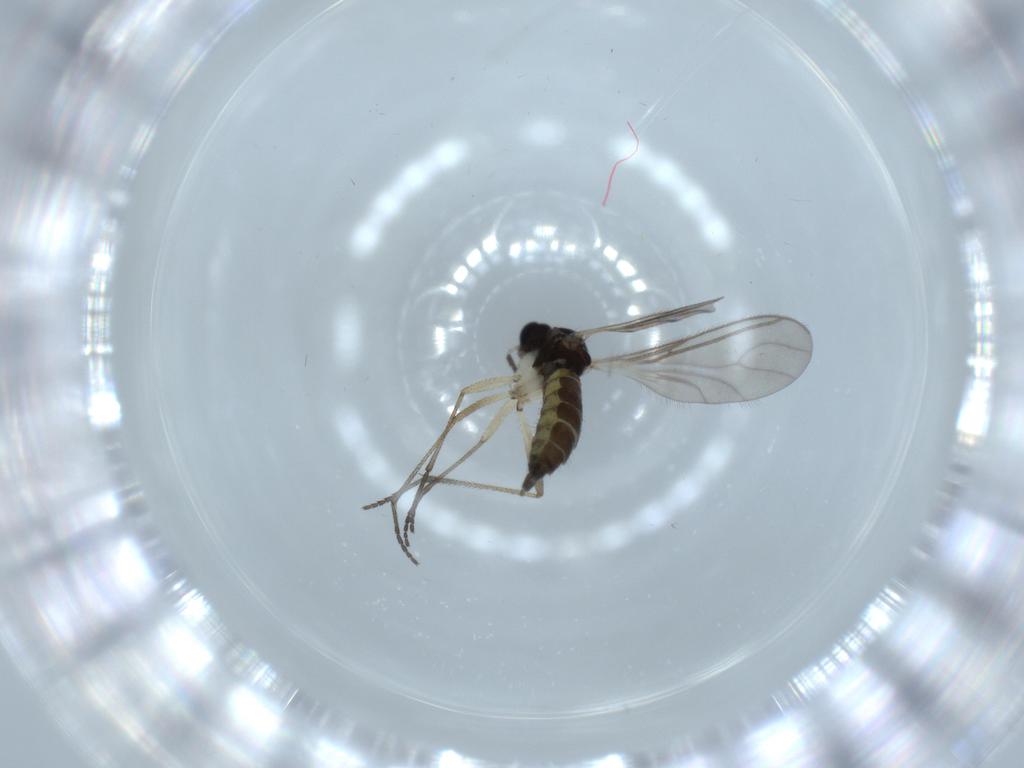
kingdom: Animalia
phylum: Arthropoda
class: Insecta
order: Diptera
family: Sciaridae
